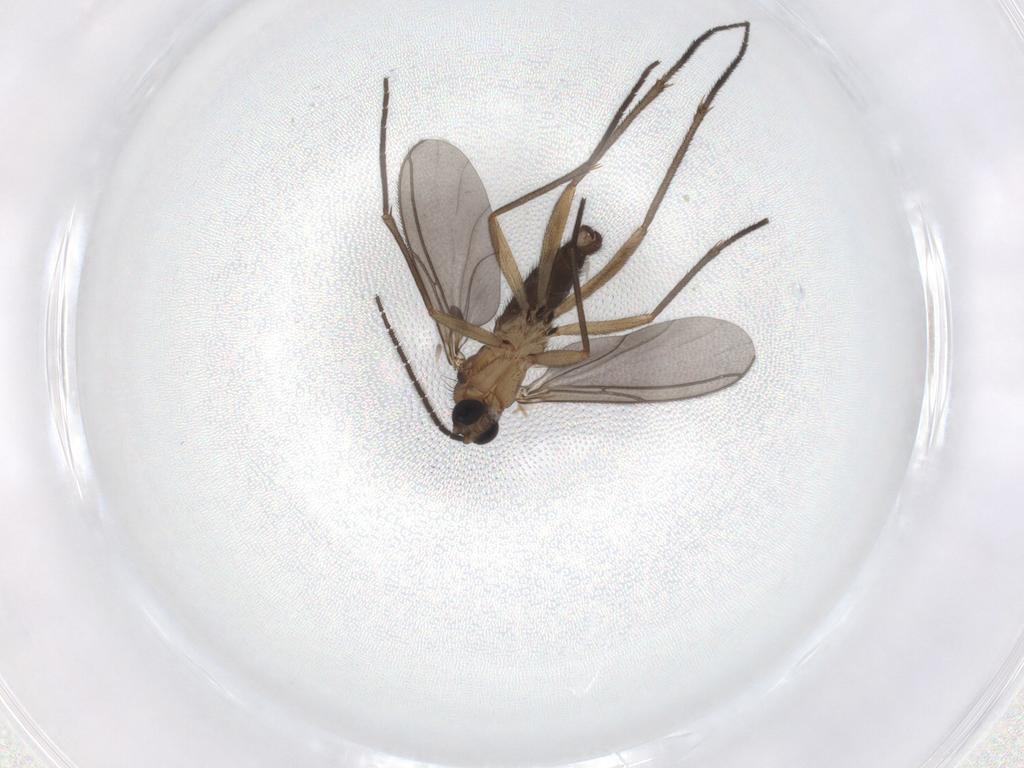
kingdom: Animalia
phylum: Arthropoda
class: Insecta
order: Diptera
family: Sciaridae
